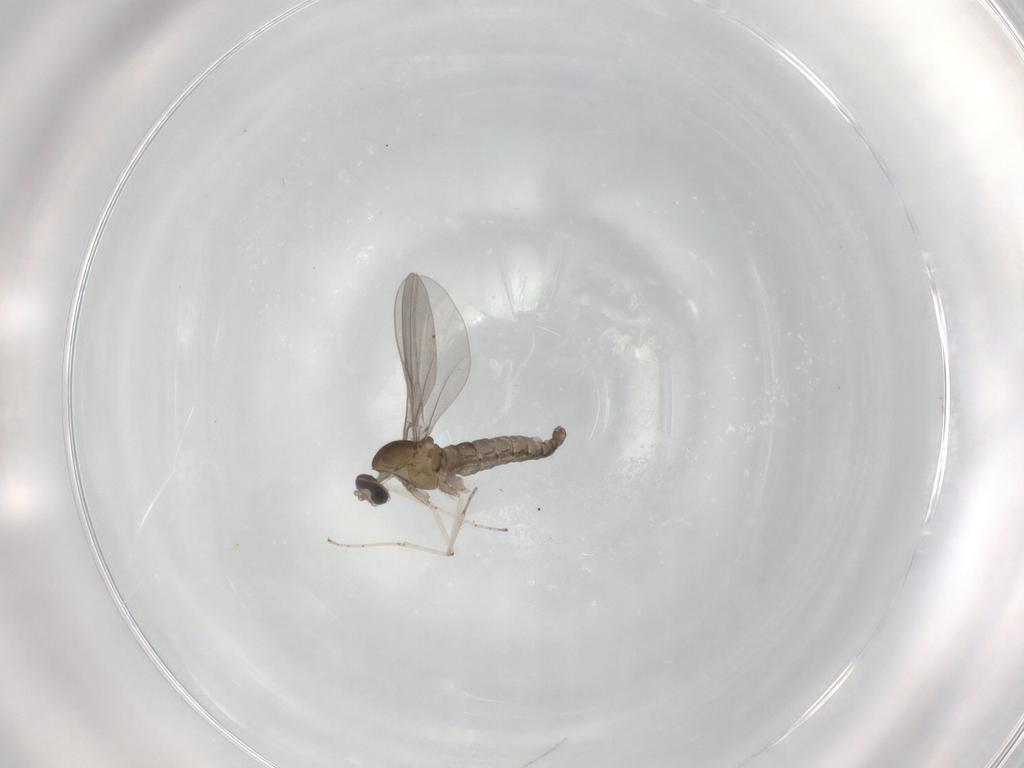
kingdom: Animalia
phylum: Arthropoda
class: Insecta
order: Diptera
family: Cecidomyiidae
